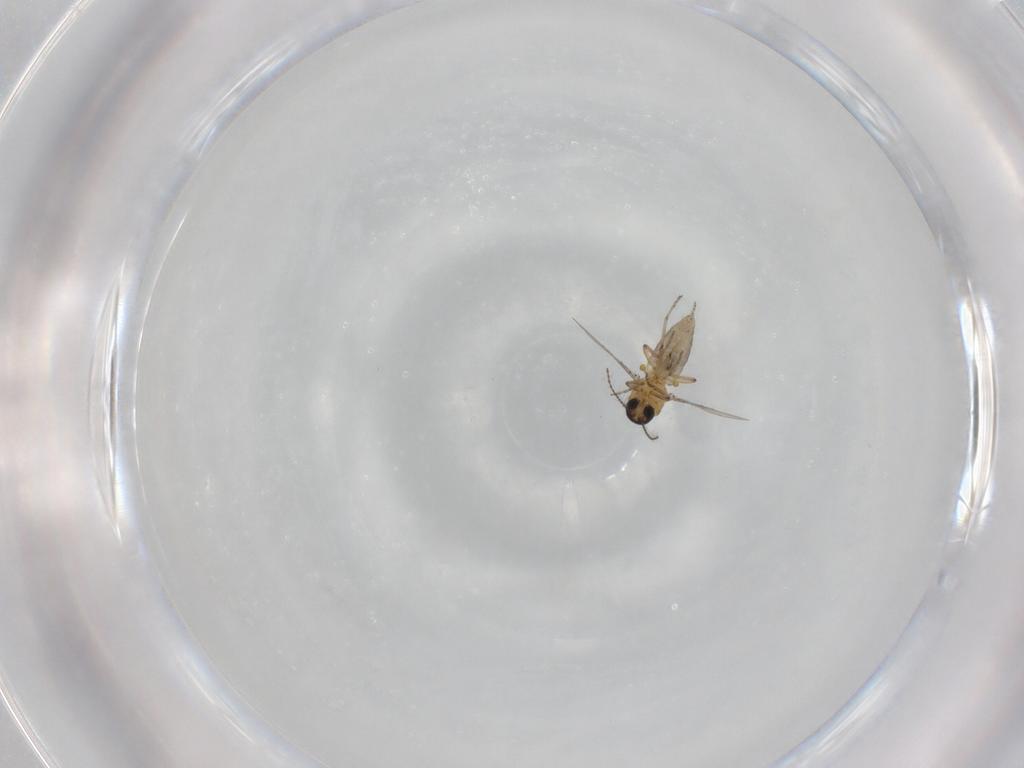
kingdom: Animalia
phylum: Arthropoda
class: Insecta
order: Diptera
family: Ceratopogonidae
